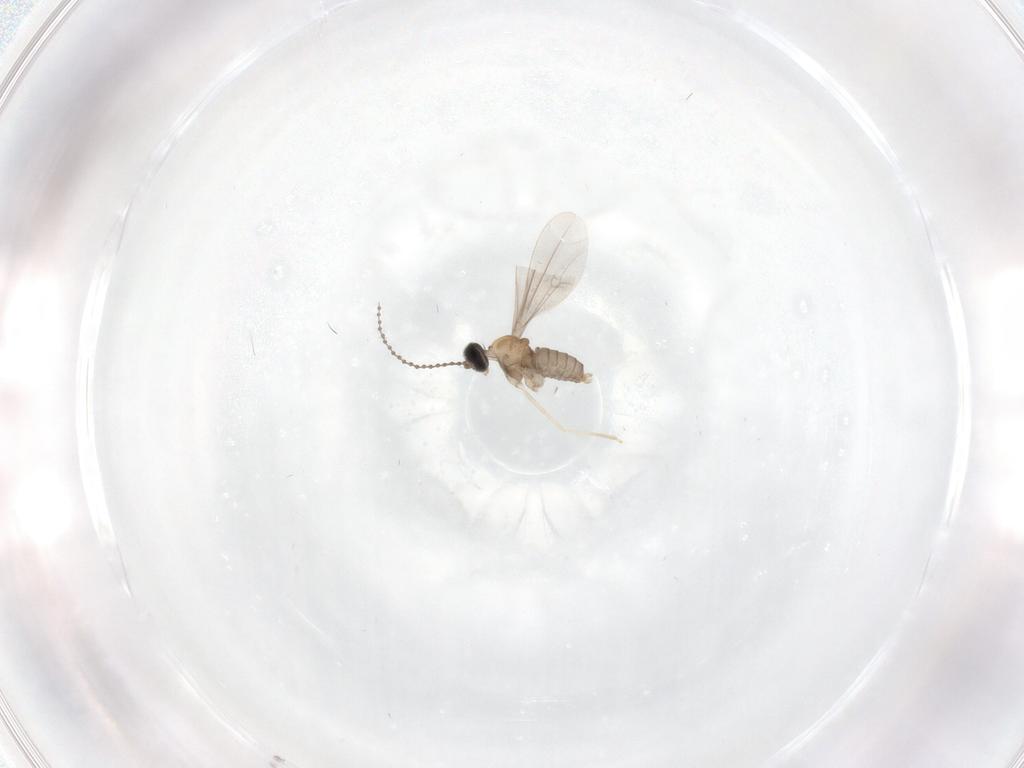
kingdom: Animalia
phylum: Arthropoda
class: Insecta
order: Diptera
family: Cecidomyiidae
